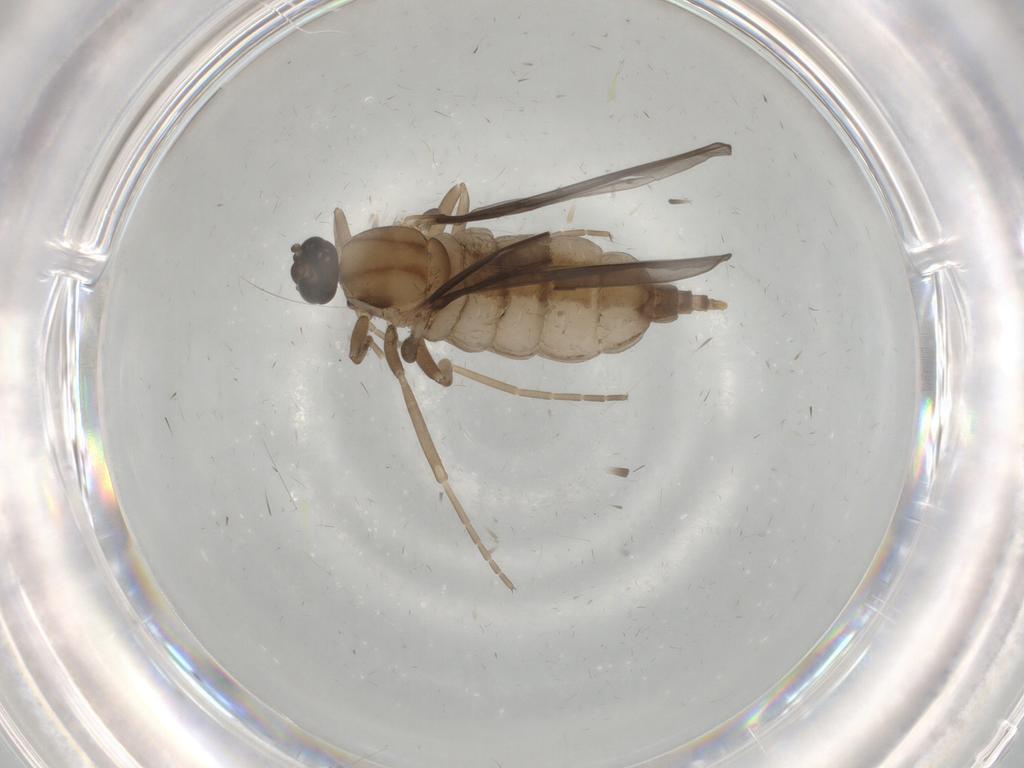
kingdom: Animalia
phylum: Arthropoda
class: Insecta
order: Diptera
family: Cecidomyiidae
